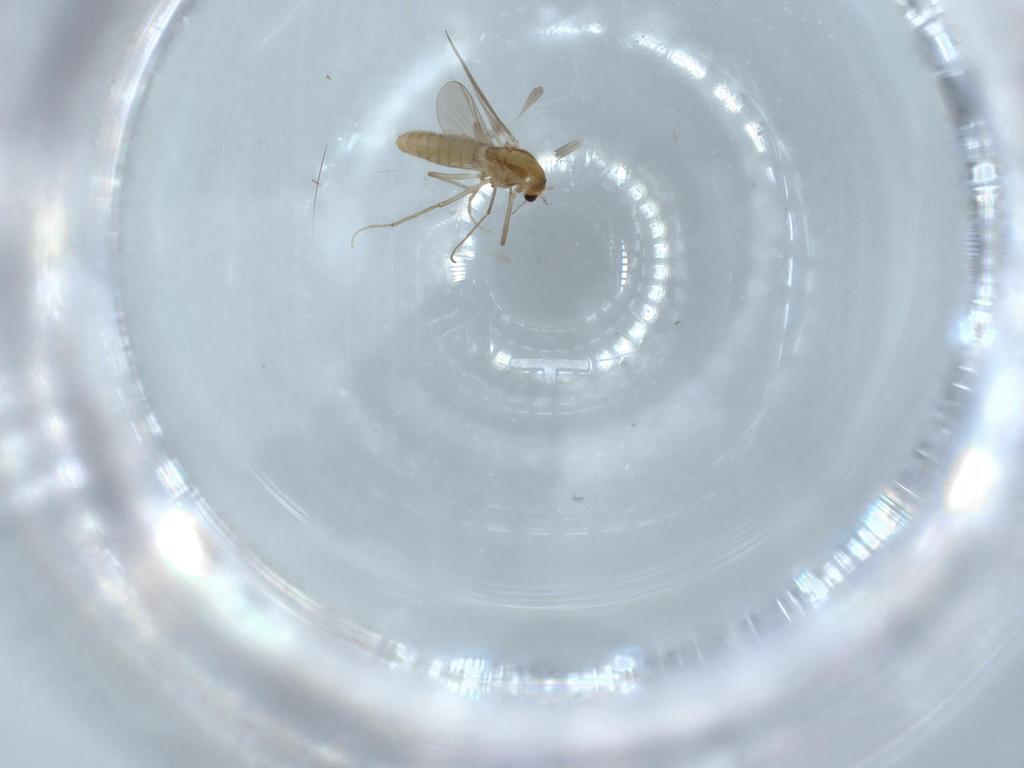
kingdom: Animalia
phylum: Arthropoda
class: Insecta
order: Diptera
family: Chironomidae
